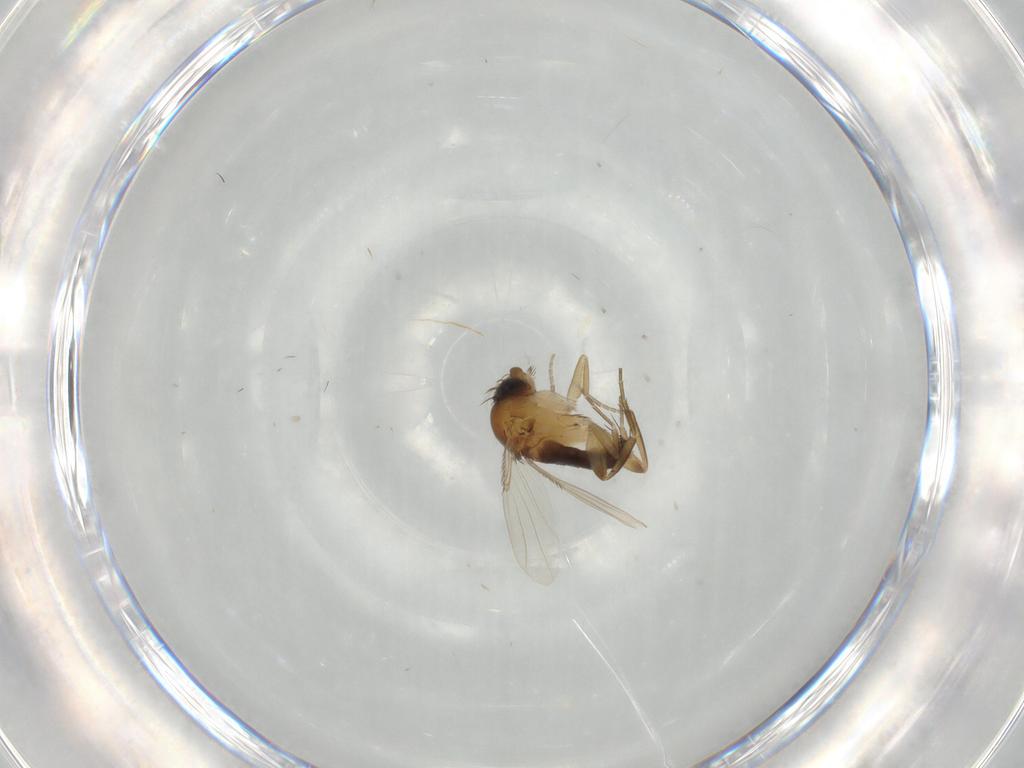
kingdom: Animalia
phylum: Arthropoda
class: Insecta
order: Diptera
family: Phoridae
